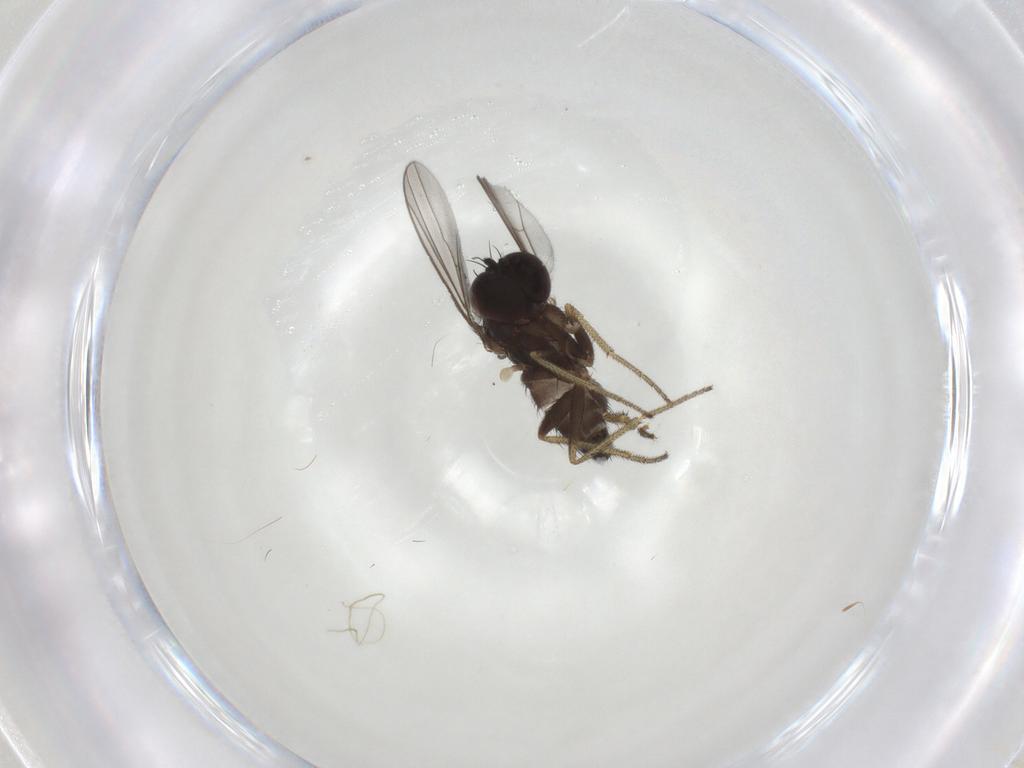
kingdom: Animalia
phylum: Arthropoda
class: Insecta
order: Diptera
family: Dolichopodidae
